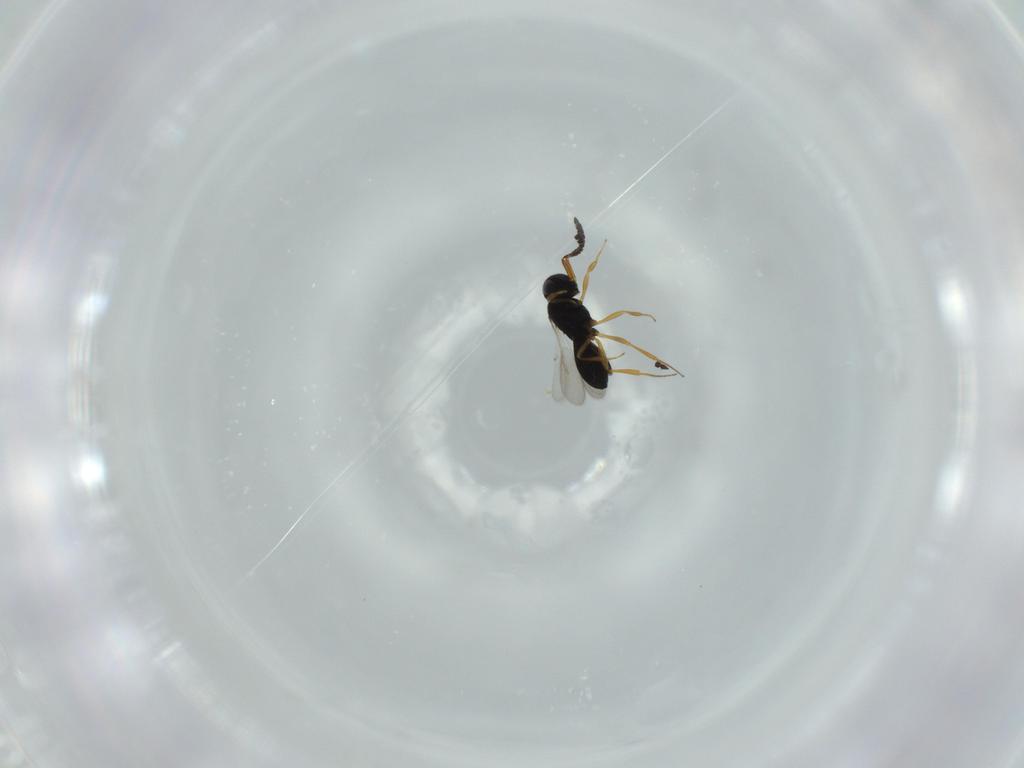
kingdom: Animalia
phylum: Arthropoda
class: Insecta
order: Hymenoptera
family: Scelionidae
